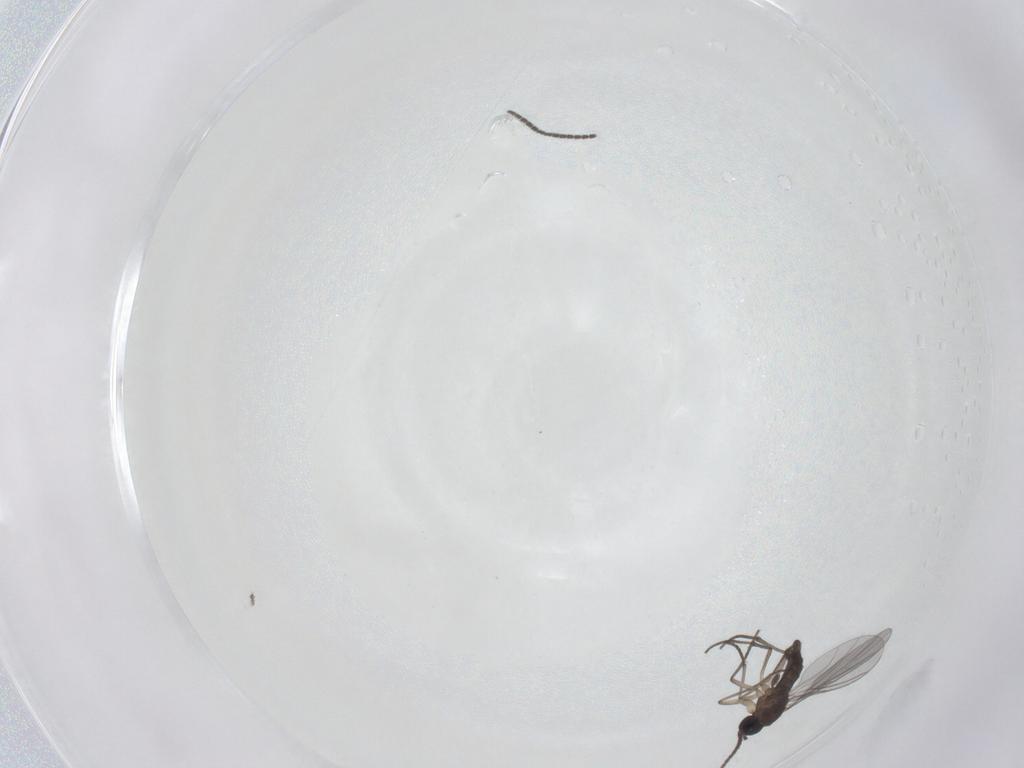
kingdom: Animalia
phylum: Arthropoda
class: Insecta
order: Diptera
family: Sciaridae
